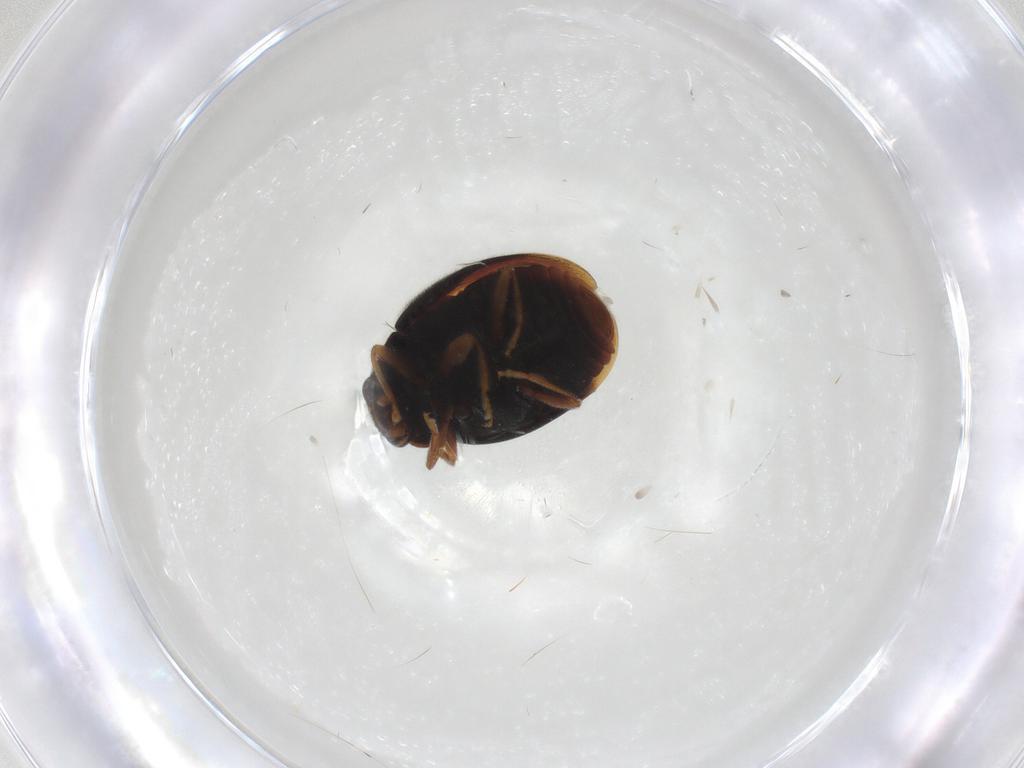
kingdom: Animalia
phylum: Arthropoda
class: Insecta
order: Coleoptera
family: Coccinellidae
